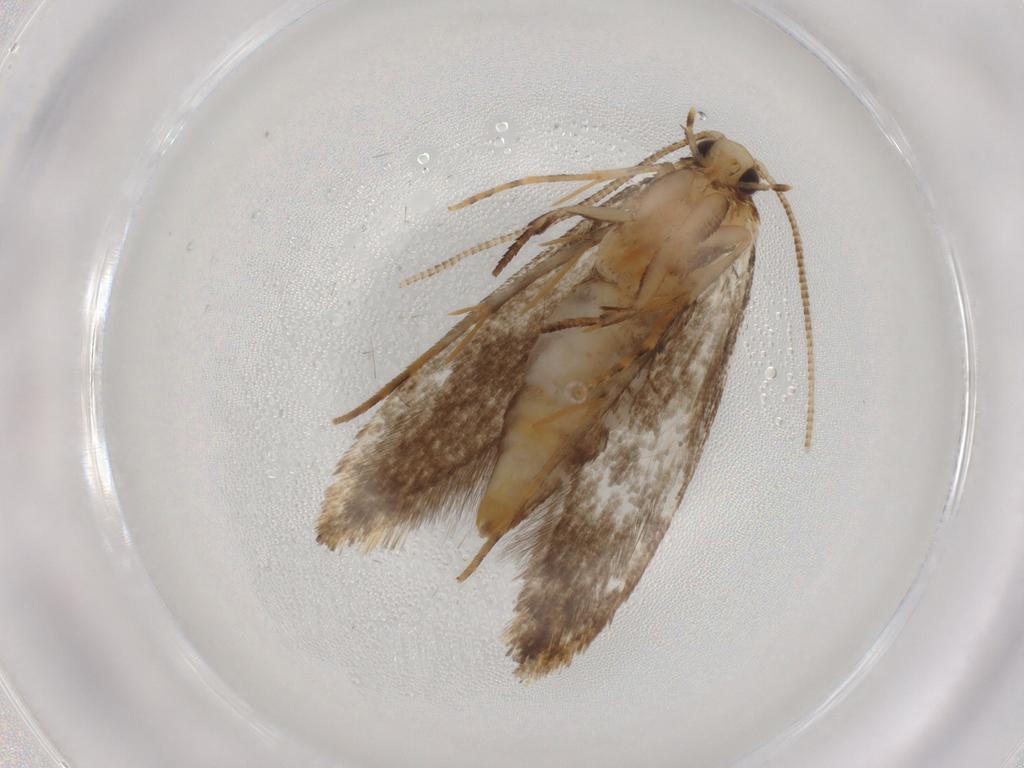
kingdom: Animalia
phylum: Arthropoda
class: Insecta
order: Lepidoptera
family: Tineidae
